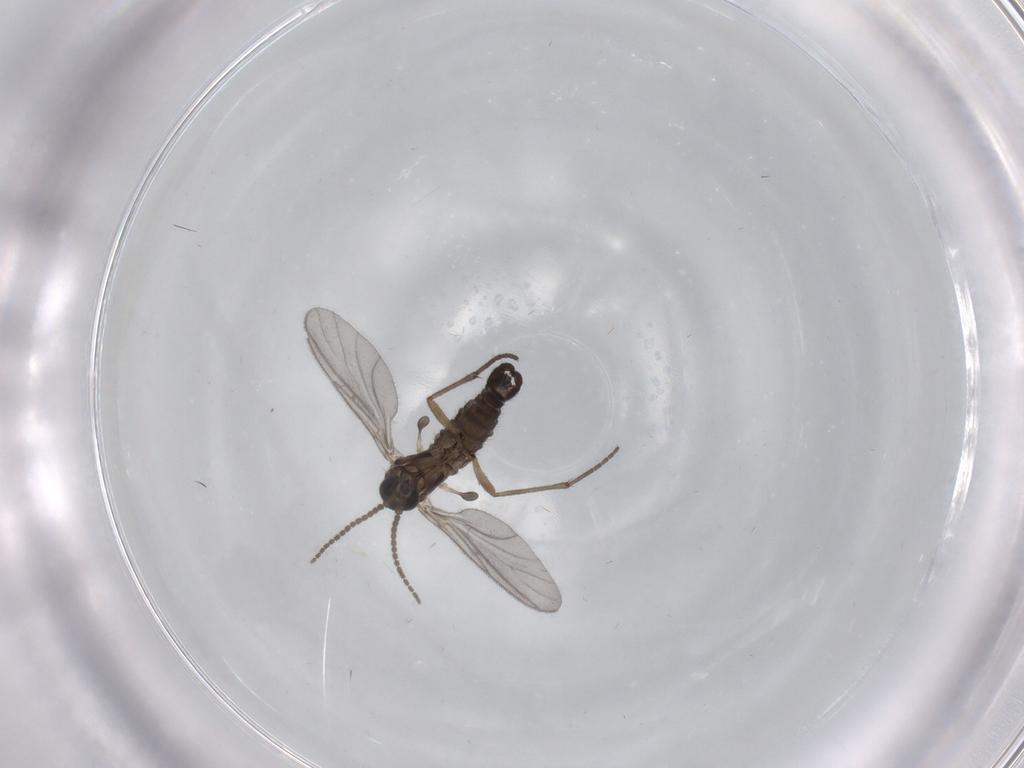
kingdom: Animalia
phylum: Arthropoda
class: Insecta
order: Diptera
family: Sciaridae
